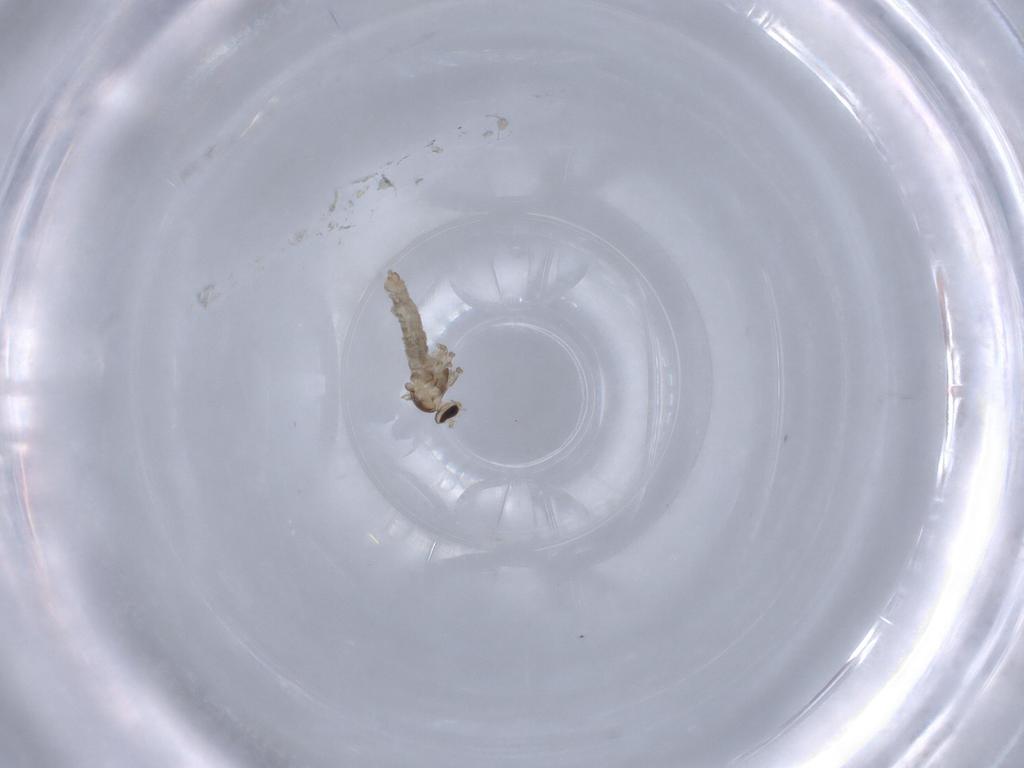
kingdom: Animalia
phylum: Arthropoda
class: Insecta
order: Diptera
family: Cecidomyiidae
